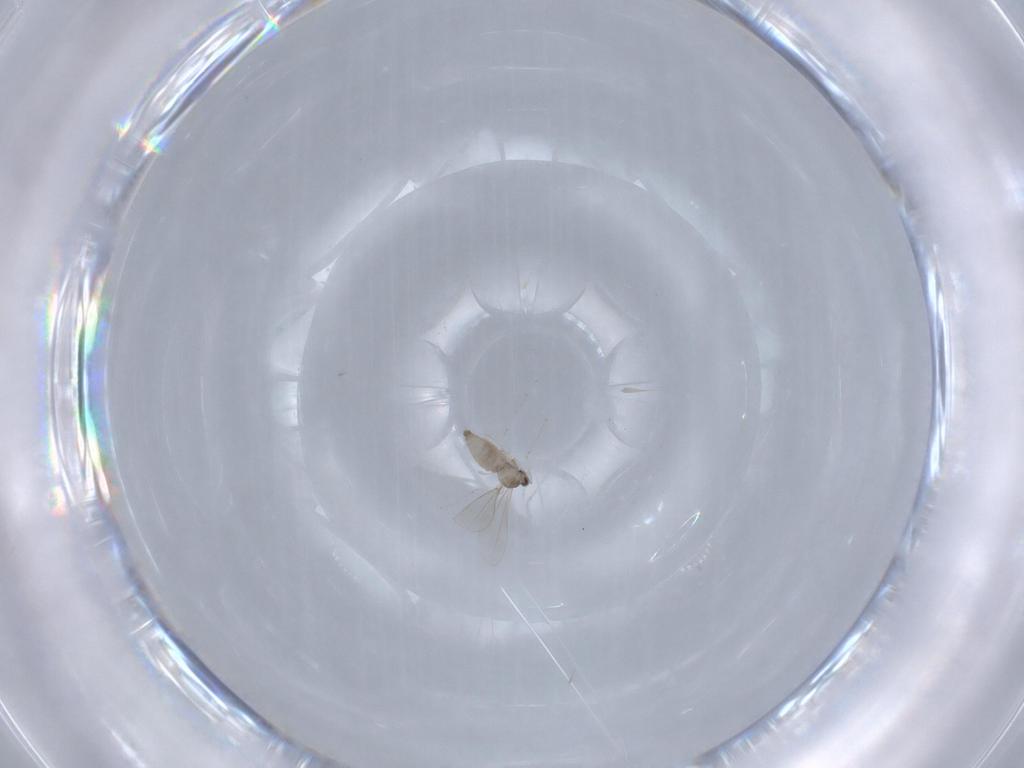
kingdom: Animalia
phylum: Arthropoda
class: Insecta
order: Diptera
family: Cecidomyiidae
